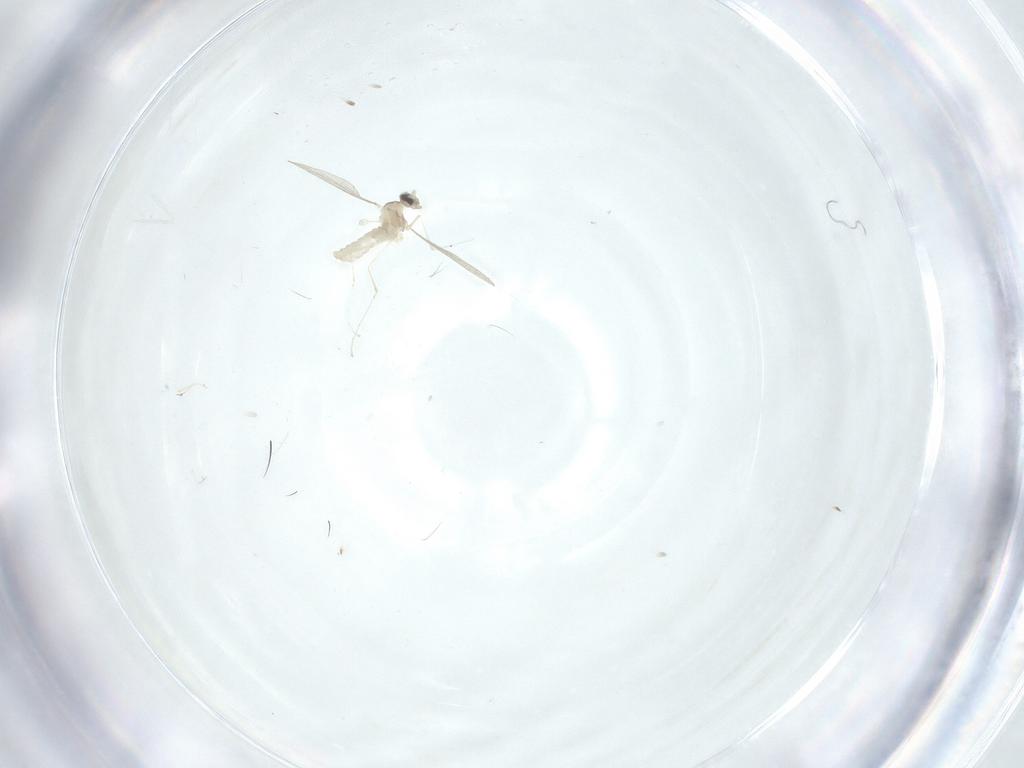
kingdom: Animalia
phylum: Arthropoda
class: Insecta
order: Diptera
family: Cecidomyiidae
